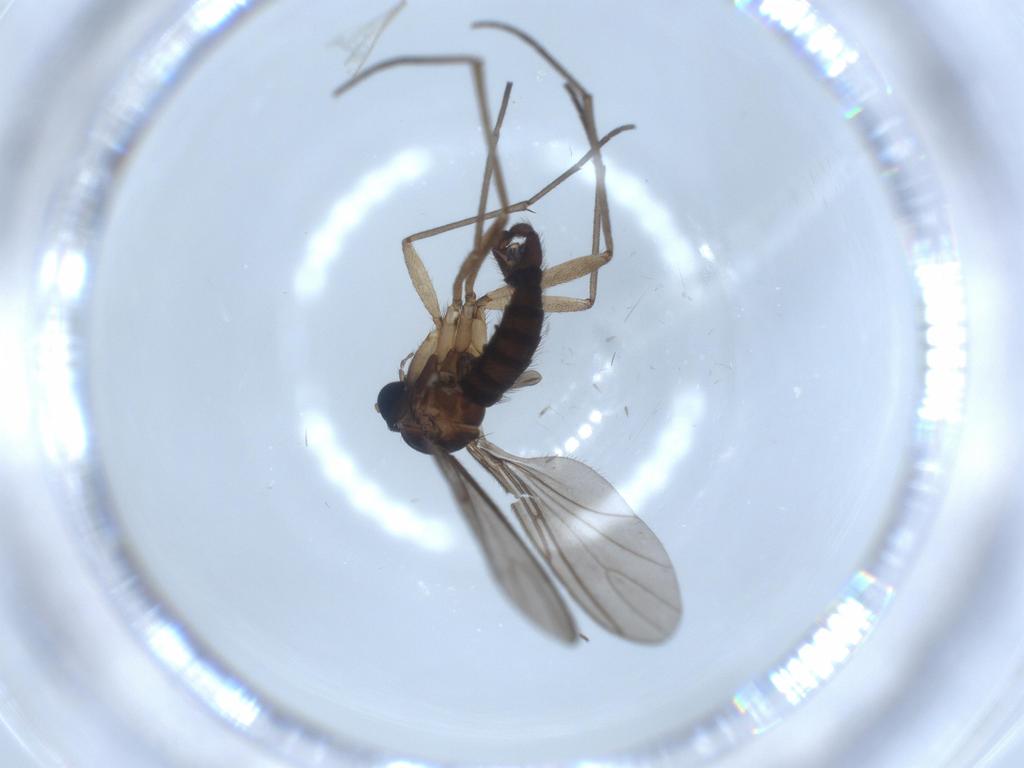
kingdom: Animalia
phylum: Arthropoda
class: Insecta
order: Diptera
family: Sciaridae
